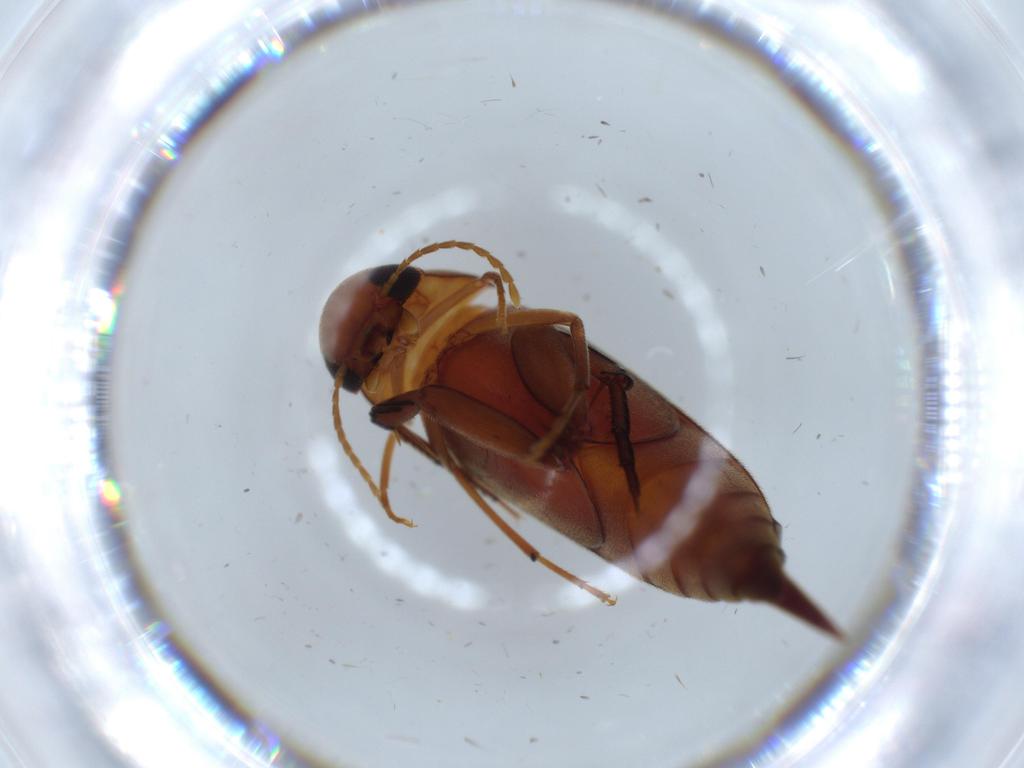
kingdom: Animalia
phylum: Arthropoda
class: Insecta
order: Coleoptera
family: Mordellidae
